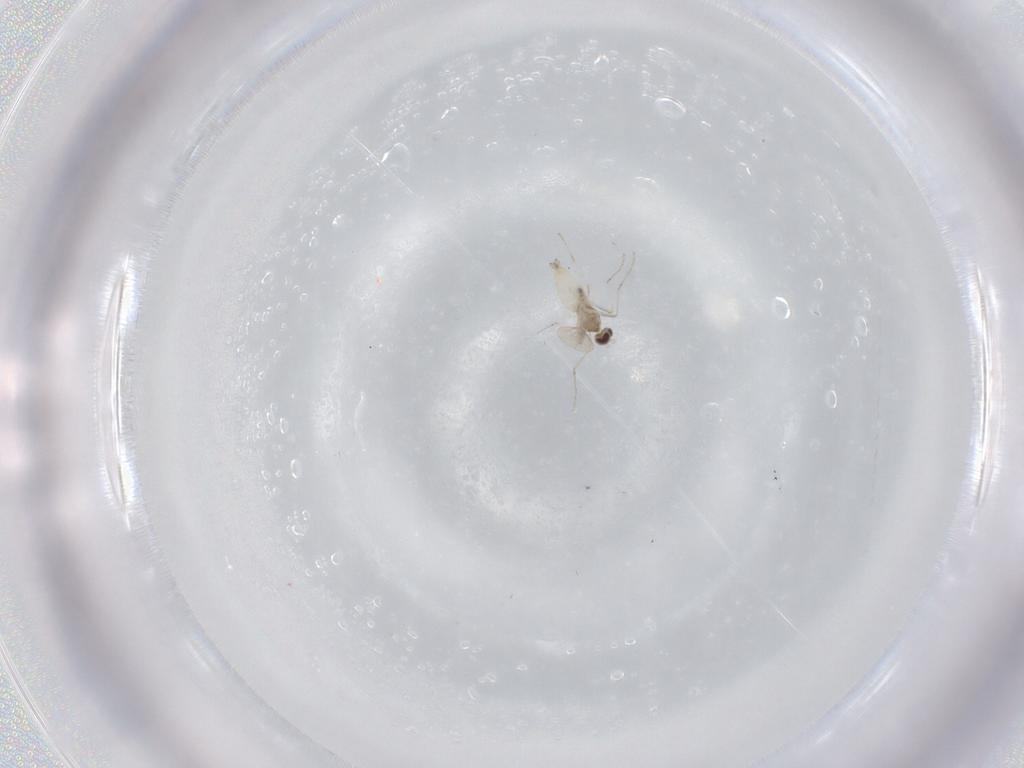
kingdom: Animalia
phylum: Arthropoda
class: Insecta
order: Diptera
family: Cecidomyiidae
